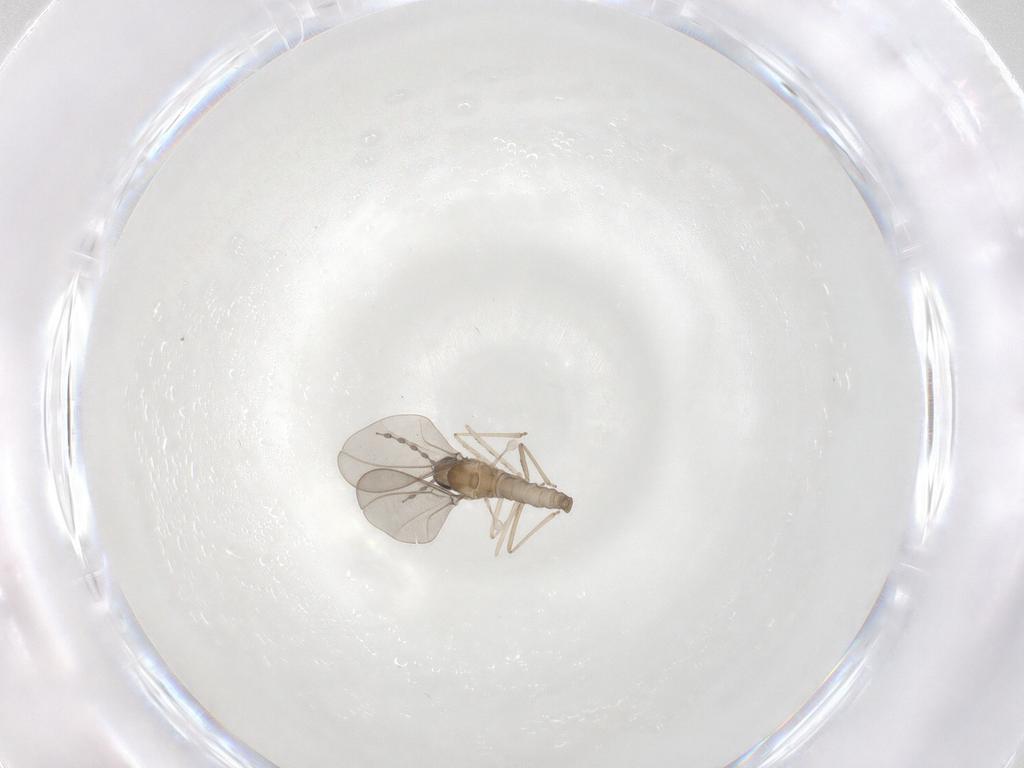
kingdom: Animalia
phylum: Arthropoda
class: Insecta
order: Diptera
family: Cecidomyiidae
